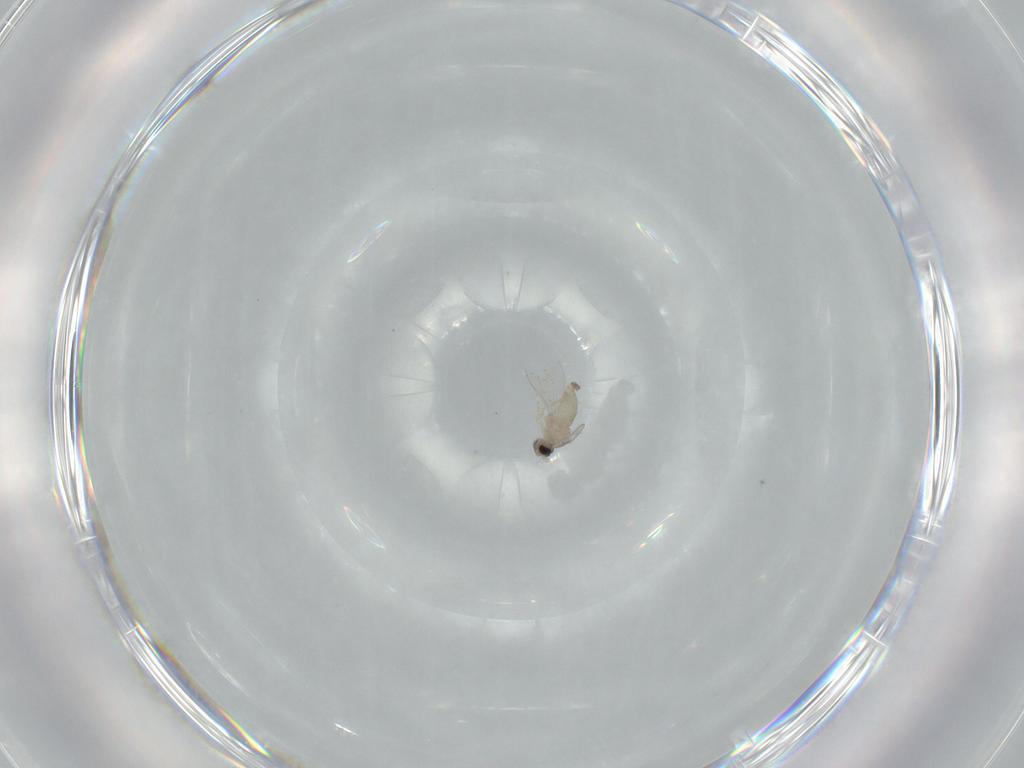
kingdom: Animalia
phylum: Arthropoda
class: Insecta
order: Diptera
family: Cecidomyiidae
